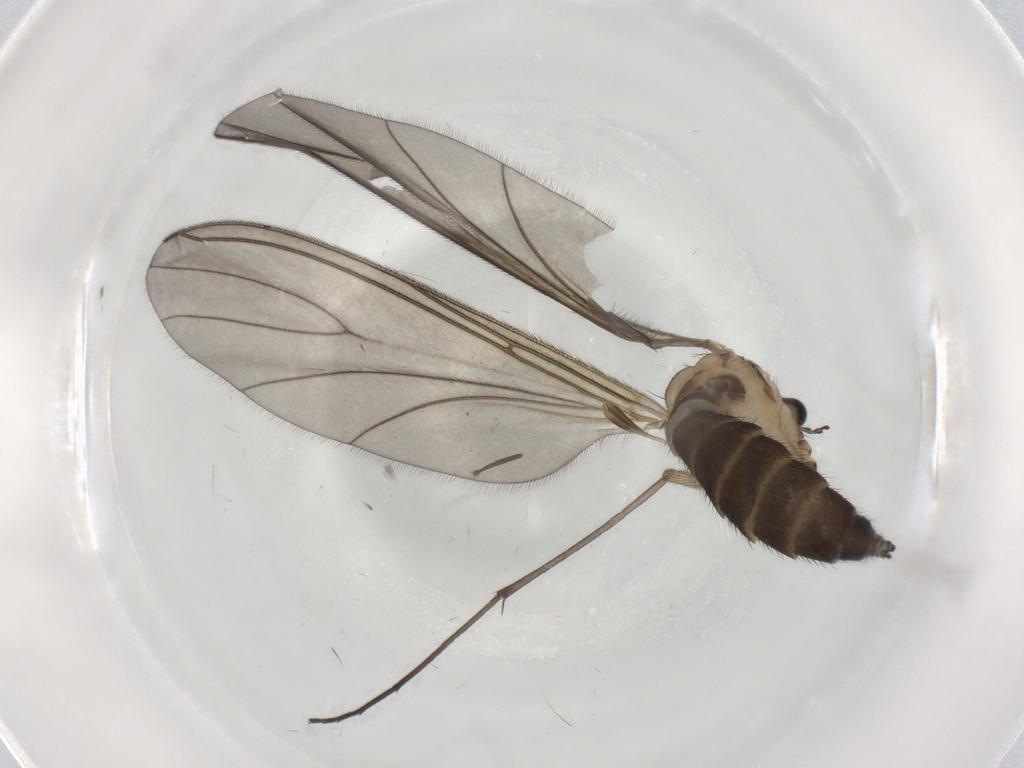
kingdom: Animalia
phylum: Arthropoda
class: Insecta
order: Diptera
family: Sciaridae
